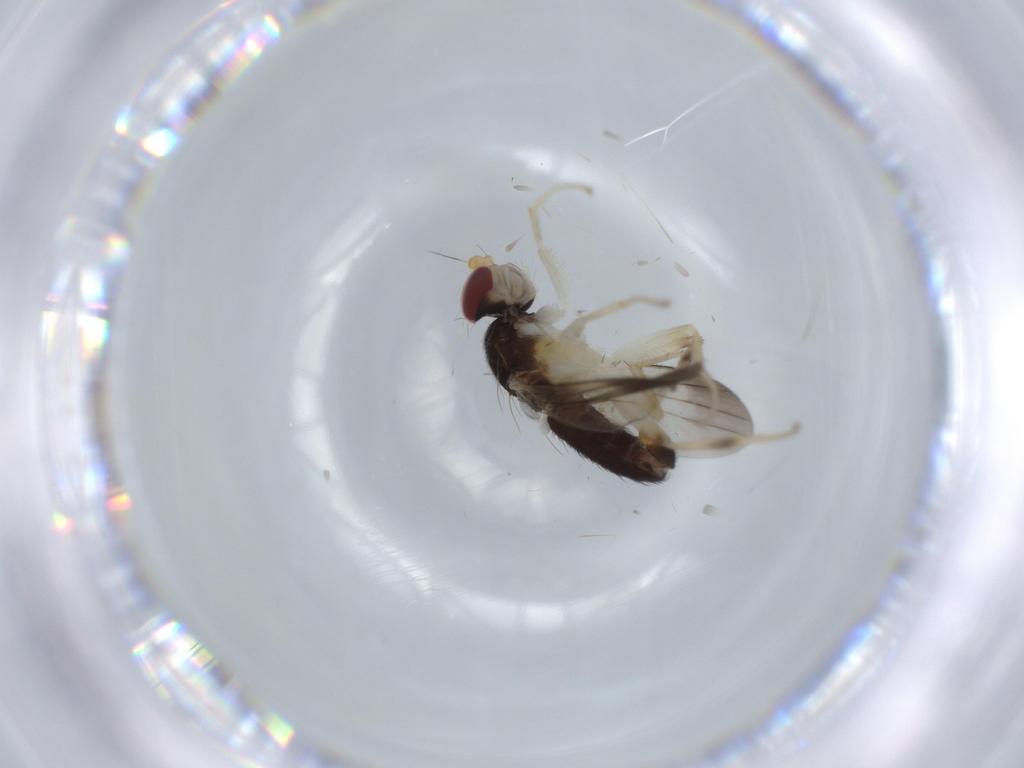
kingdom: Animalia
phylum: Arthropoda
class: Insecta
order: Diptera
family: Clusiidae
